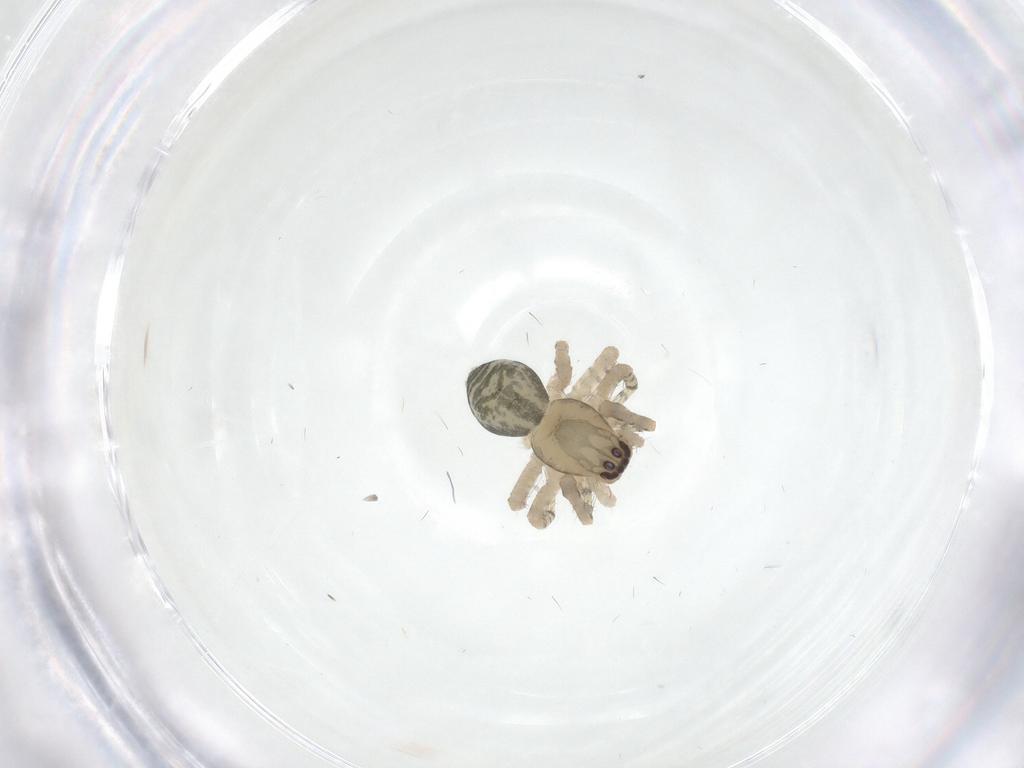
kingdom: Animalia
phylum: Arthropoda
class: Arachnida
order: Araneae
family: Anyphaenidae
